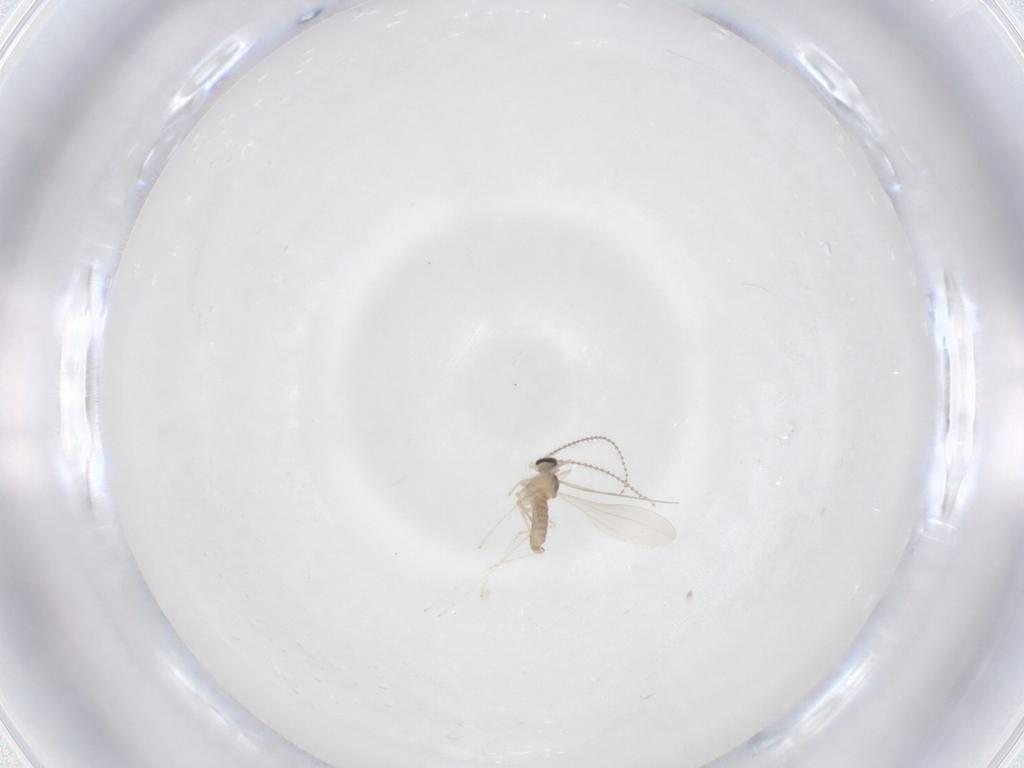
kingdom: Animalia
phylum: Arthropoda
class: Insecta
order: Diptera
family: Cecidomyiidae
